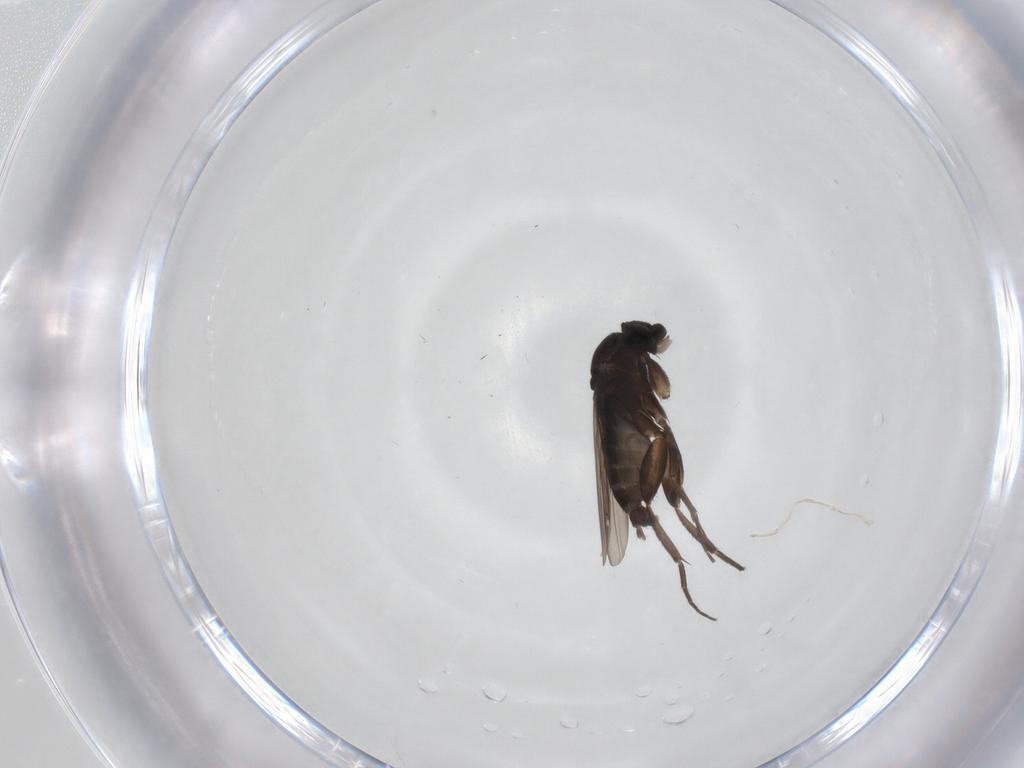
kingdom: Animalia
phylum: Arthropoda
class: Insecta
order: Diptera
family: Phoridae
